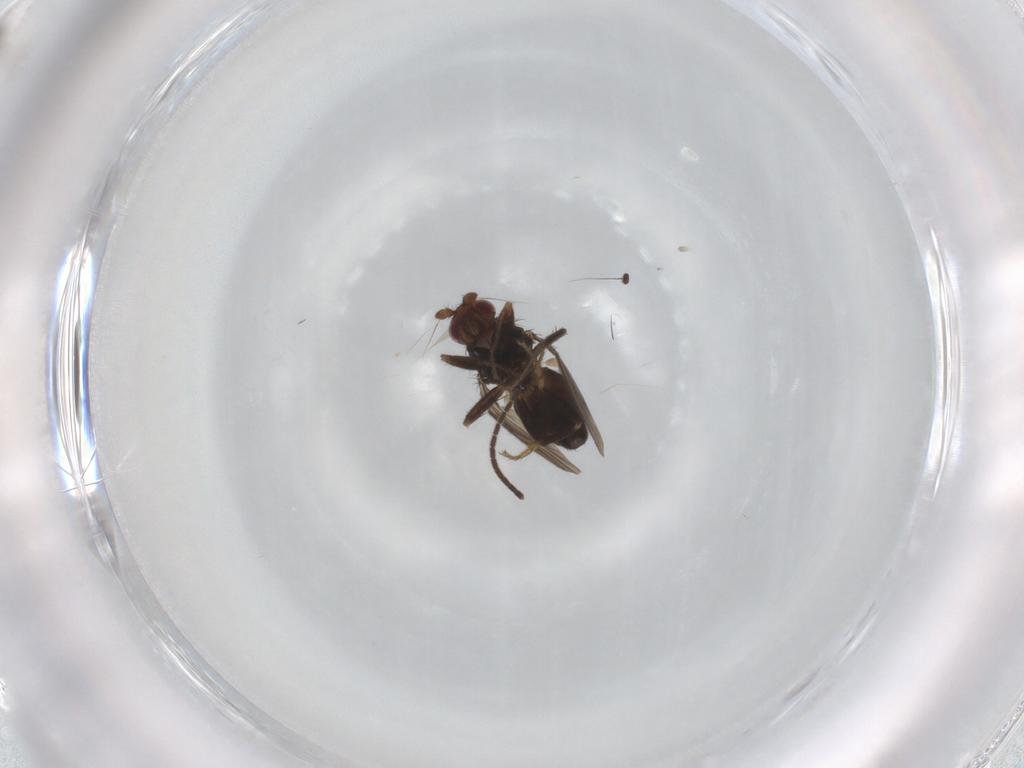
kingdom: Animalia
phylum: Arthropoda
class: Insecta
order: Diptera
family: Sphaeroceridae
